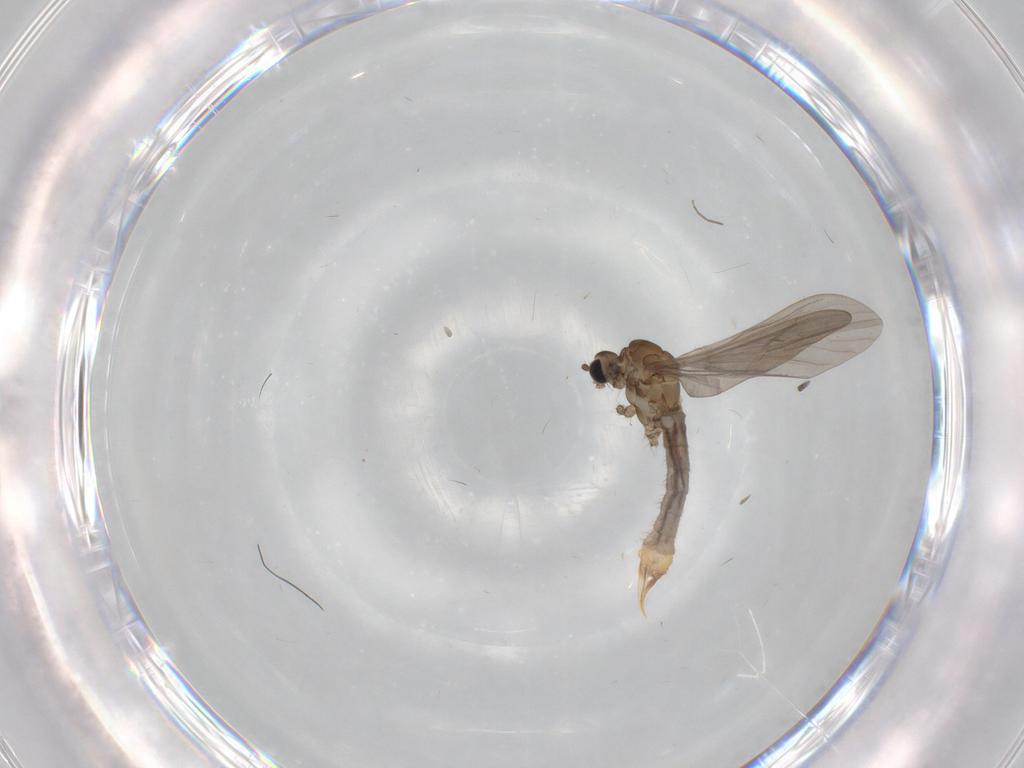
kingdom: Animalia
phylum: Arthropoda
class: Insecta
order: Diptera
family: Limoniidae
